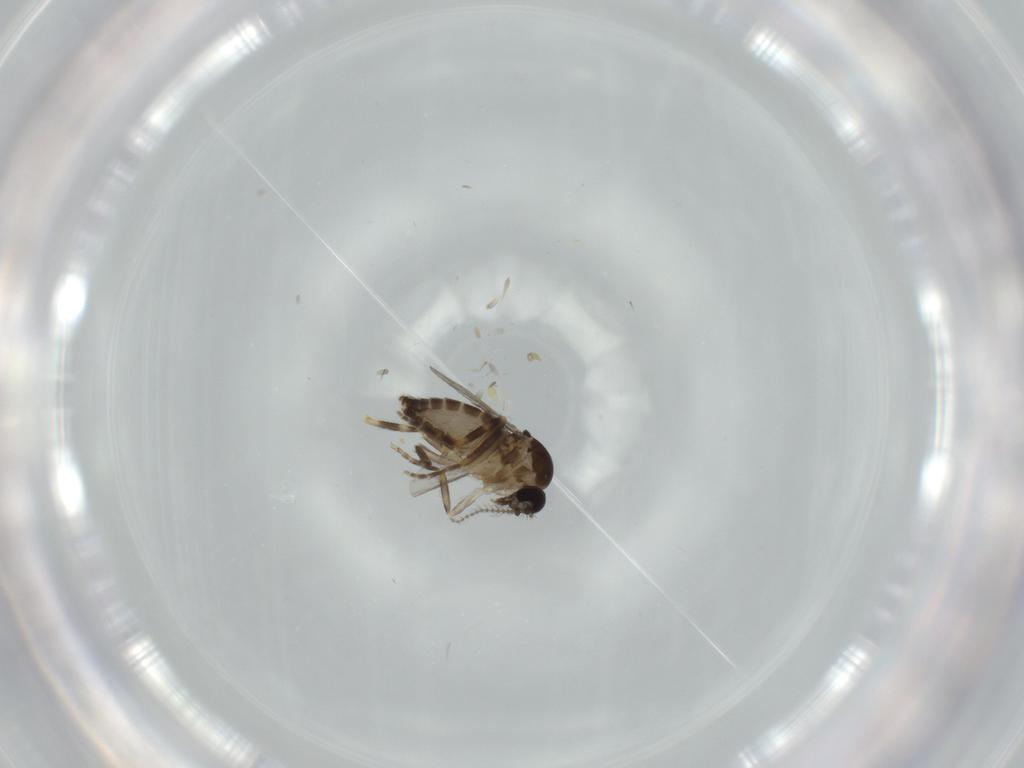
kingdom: Animalia
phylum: Arthropoda
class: Insecta
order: Diptera
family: Ceratopogonidae
